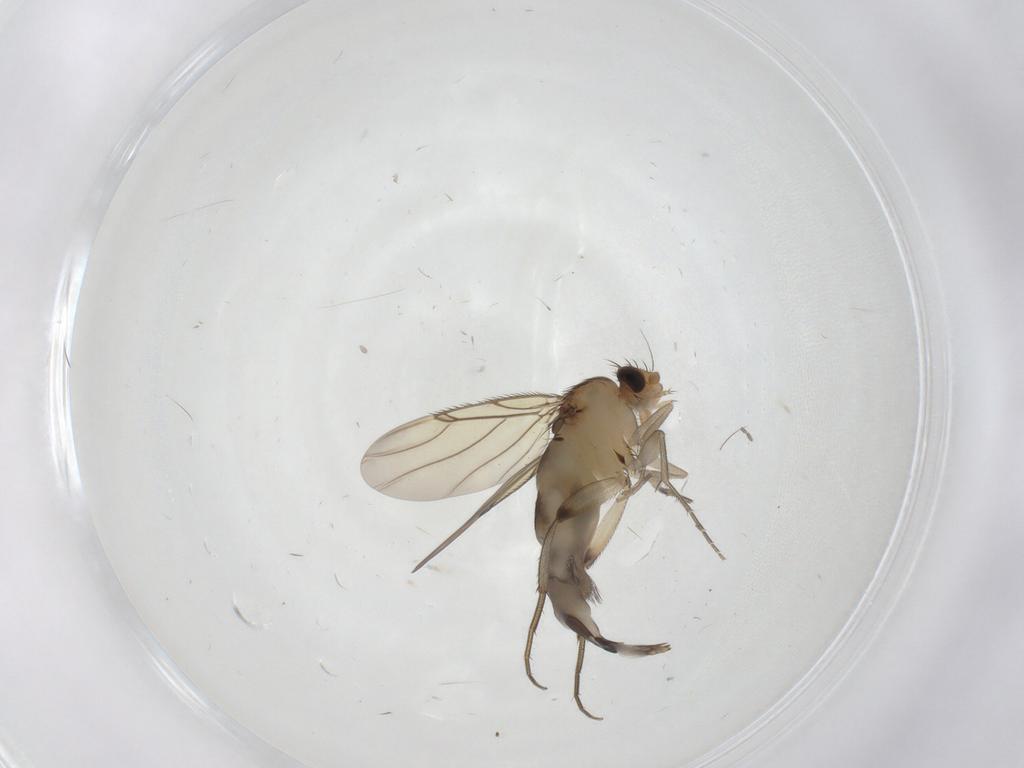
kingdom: Animalia
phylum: Arthropoda
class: Insecta
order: Diptera
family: Phoridae
